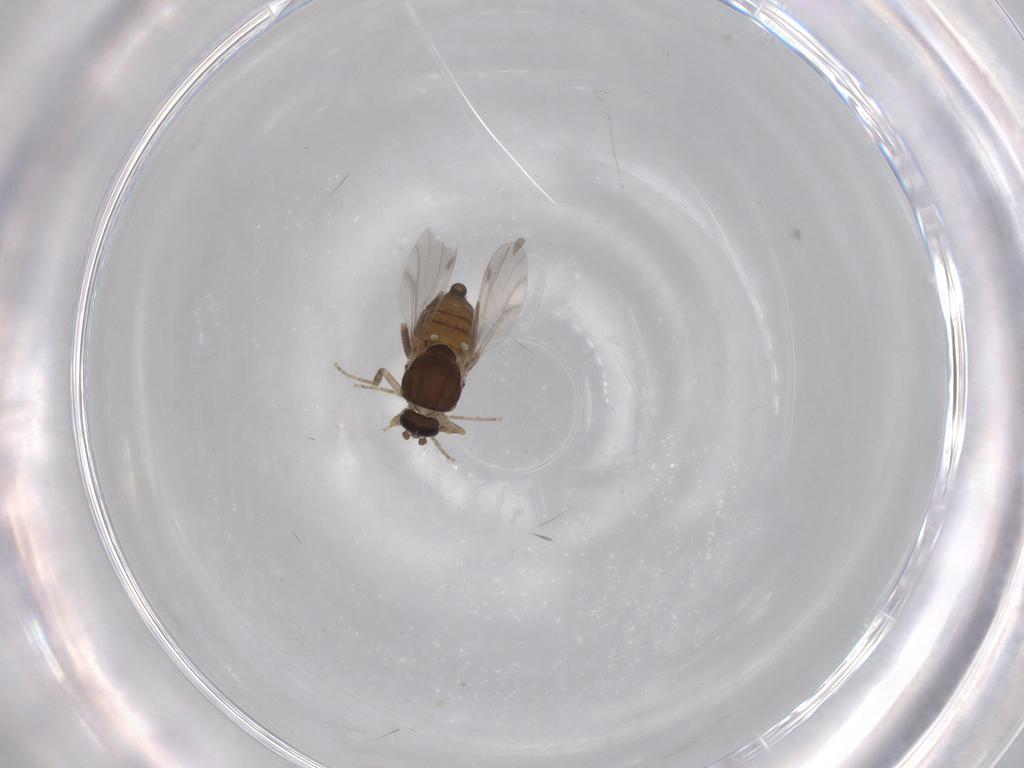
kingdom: Animalia
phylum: Arthropoda
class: Insecta
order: Diptera
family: Ceratopogonidae
